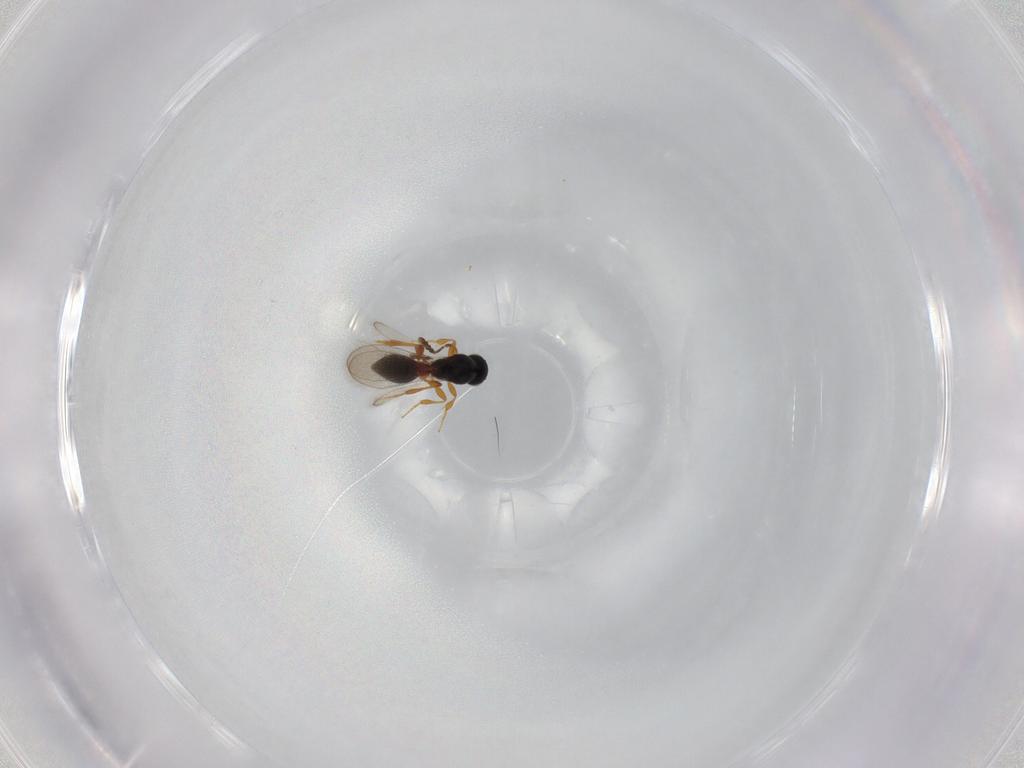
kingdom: Animalia
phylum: Arthropoda
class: Insecta
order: Hymenoptera
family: Platygastridae
